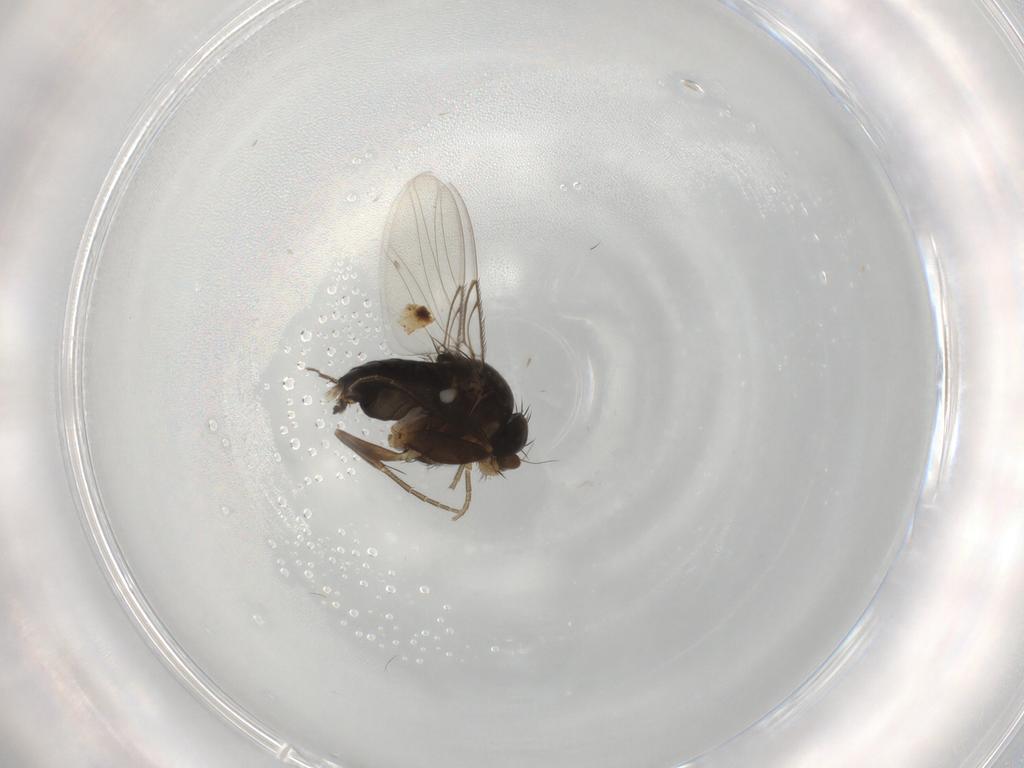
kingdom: Animalia
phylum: Arthropoda
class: Insecta
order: Diptera
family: Phoridae
